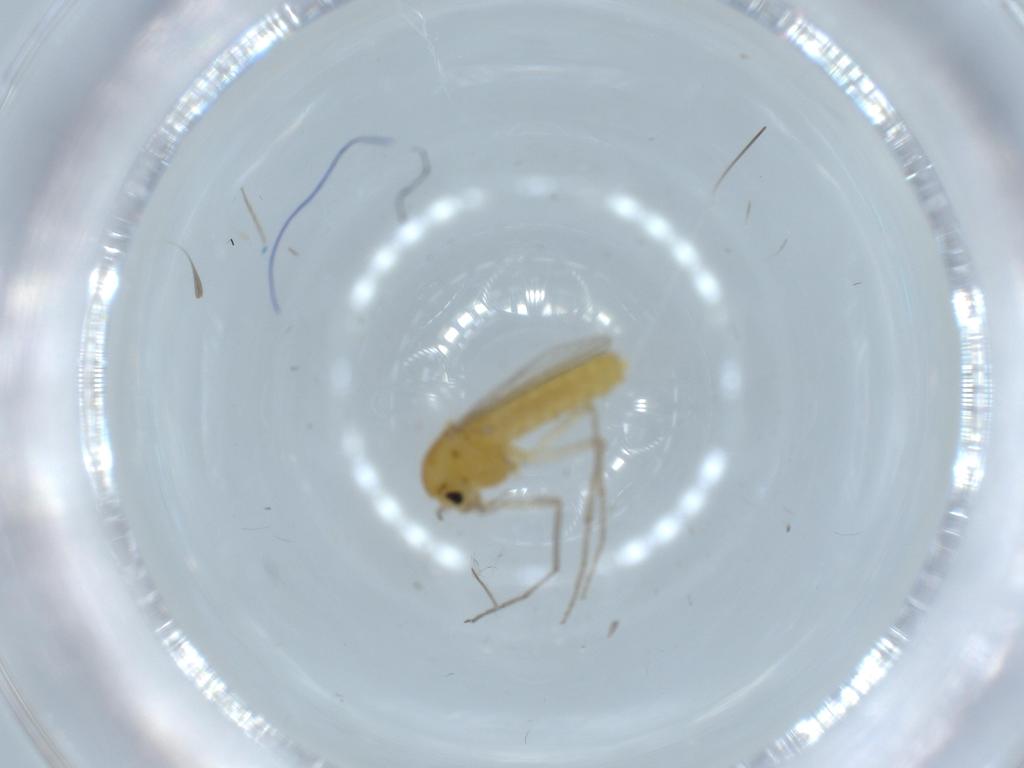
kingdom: Animalia
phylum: Arthropoda
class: Insecta
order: Diptera
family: Chironomidae
